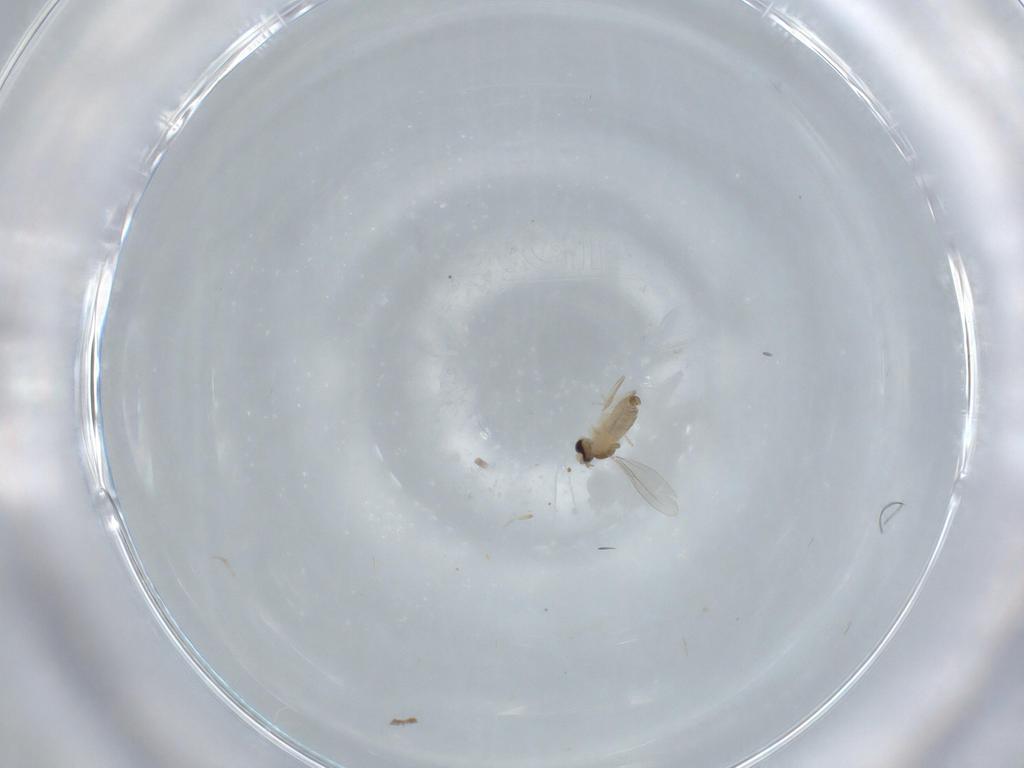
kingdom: Animalia
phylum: Arthropoda
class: Insecta
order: Diptera
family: Cecidomyiidae
